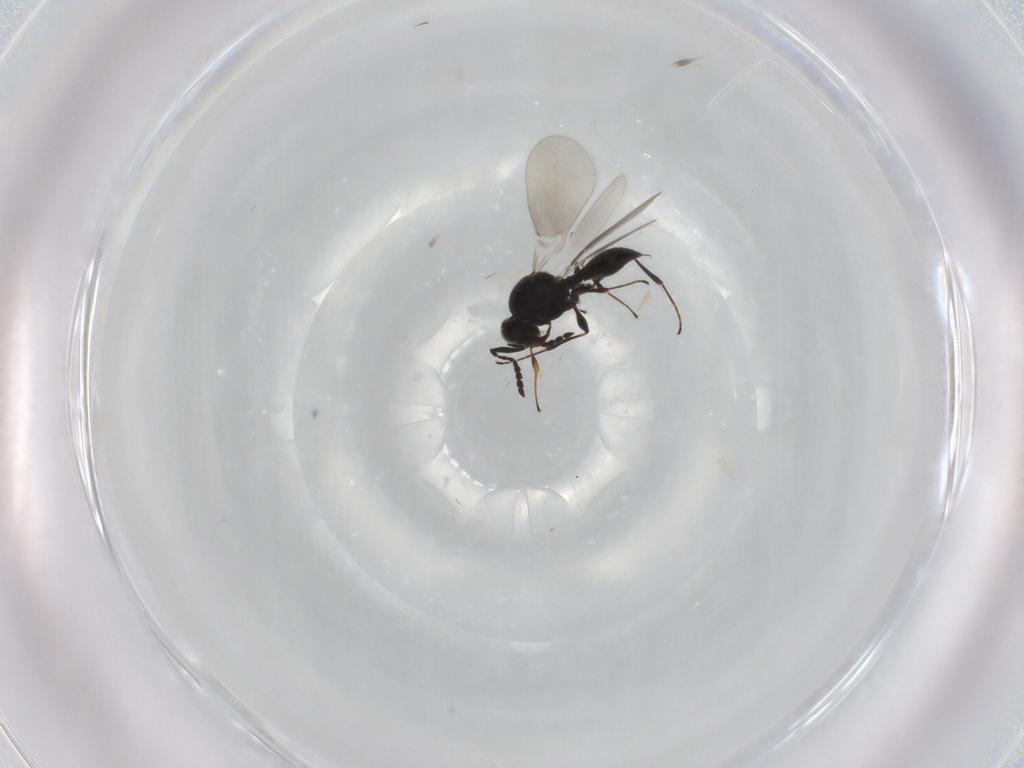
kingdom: Animalia
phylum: Arthropoda
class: Insecta
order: Hymenoptera
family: Platygastridae
